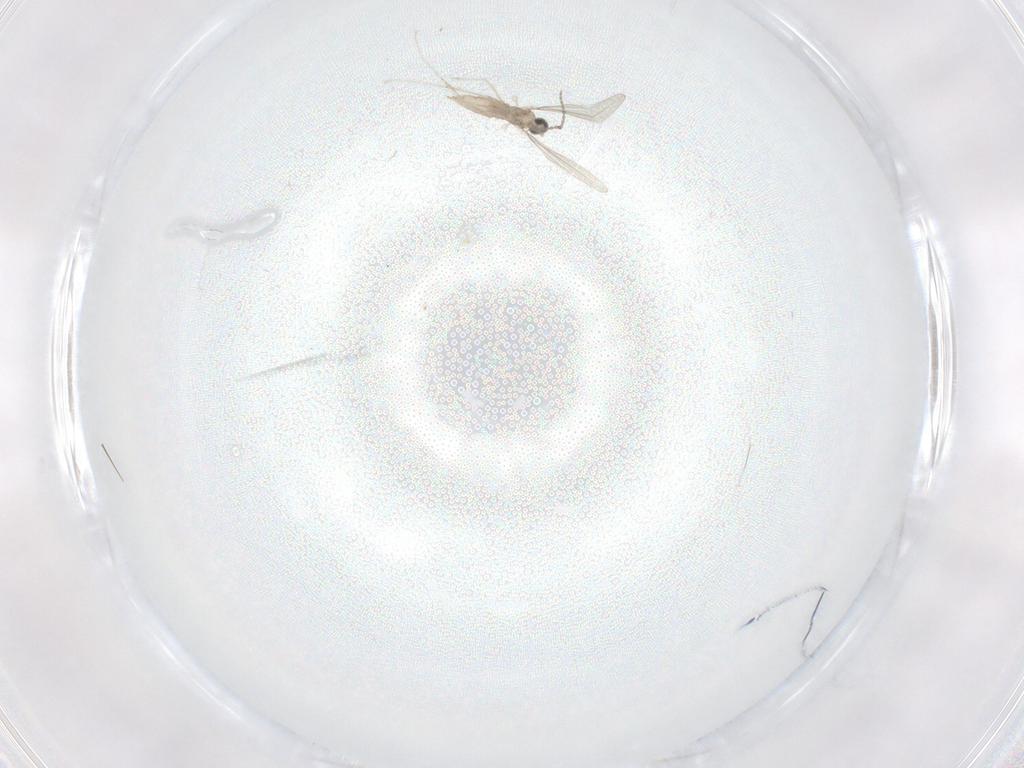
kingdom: Animalia
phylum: Arthropoda
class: Insecta
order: Diptera
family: Cecidomyiidae
